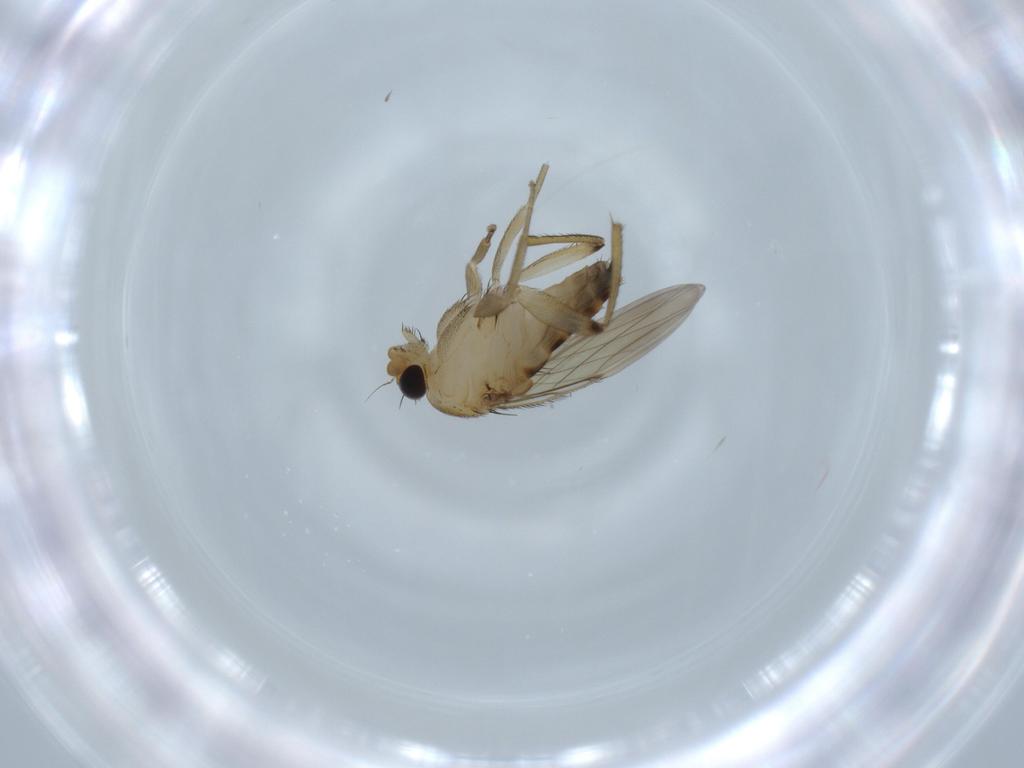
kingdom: Animalia
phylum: Arthropoda
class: Insecta
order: Diptera
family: Phoridae
